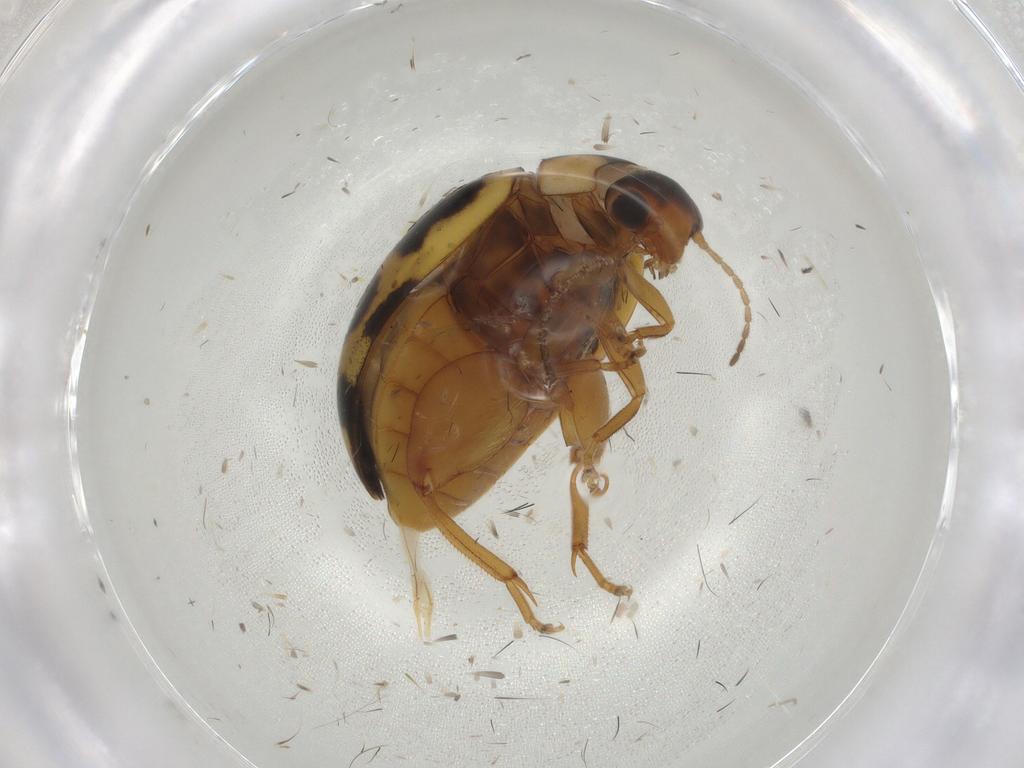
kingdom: Animalia
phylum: Arthropoda
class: Insecta
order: Coleoptera
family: Scirtidae
